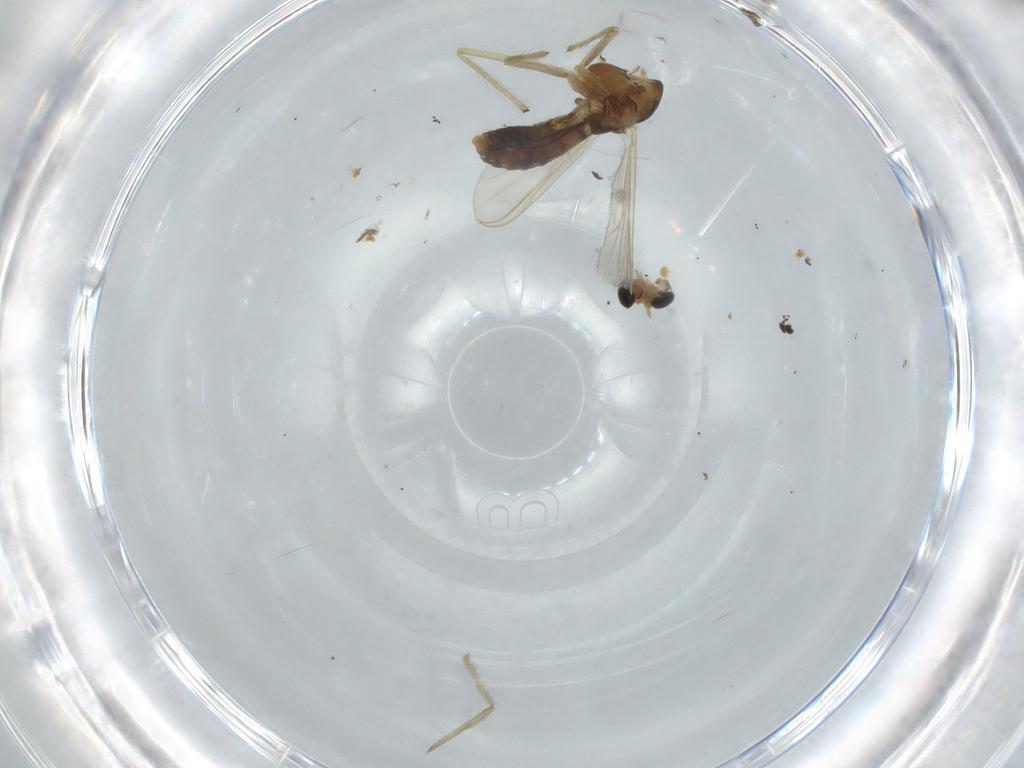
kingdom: Animalia
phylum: Arthropoda
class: Insecta
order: Diptera
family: Chironomidae
